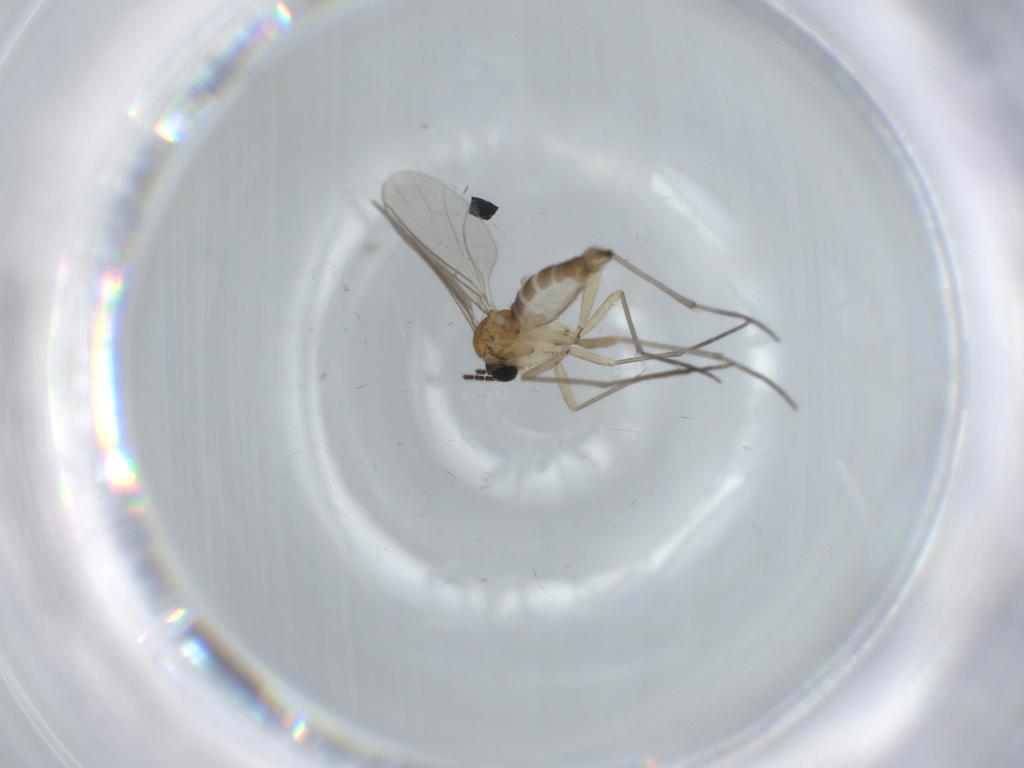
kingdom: Animalia
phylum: Arthropoda
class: Insecta
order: Diptera
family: Sciaridae
